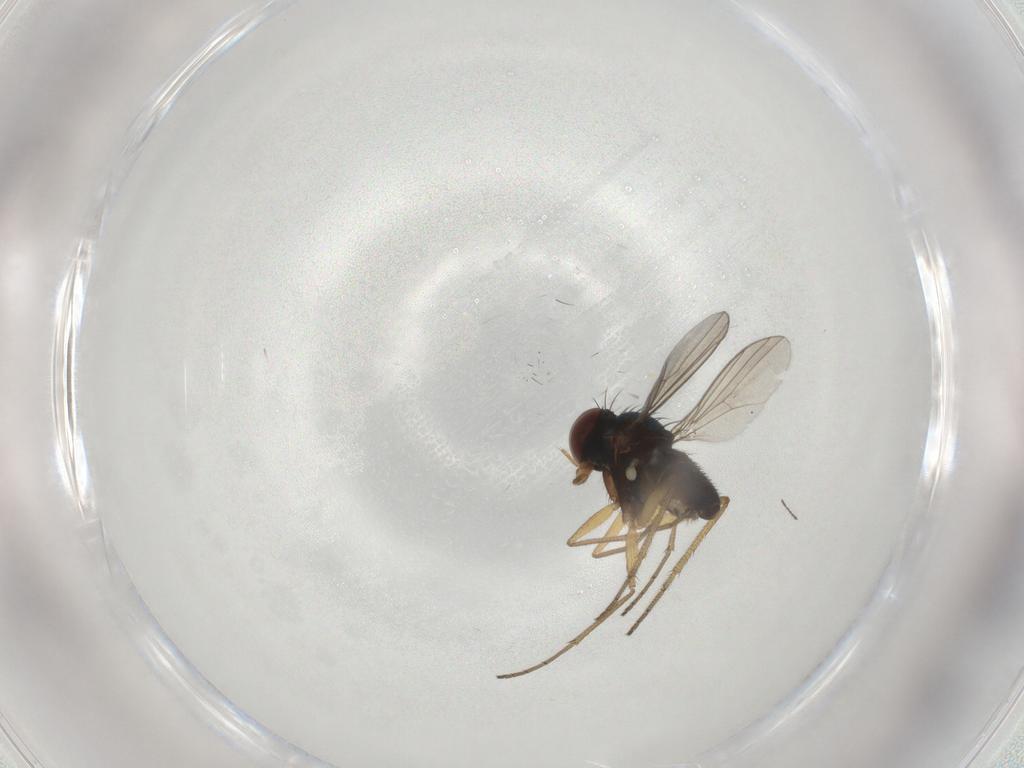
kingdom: Animalia
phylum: Arthropoda
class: Insecta
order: Diptera
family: Dolichopodidae
